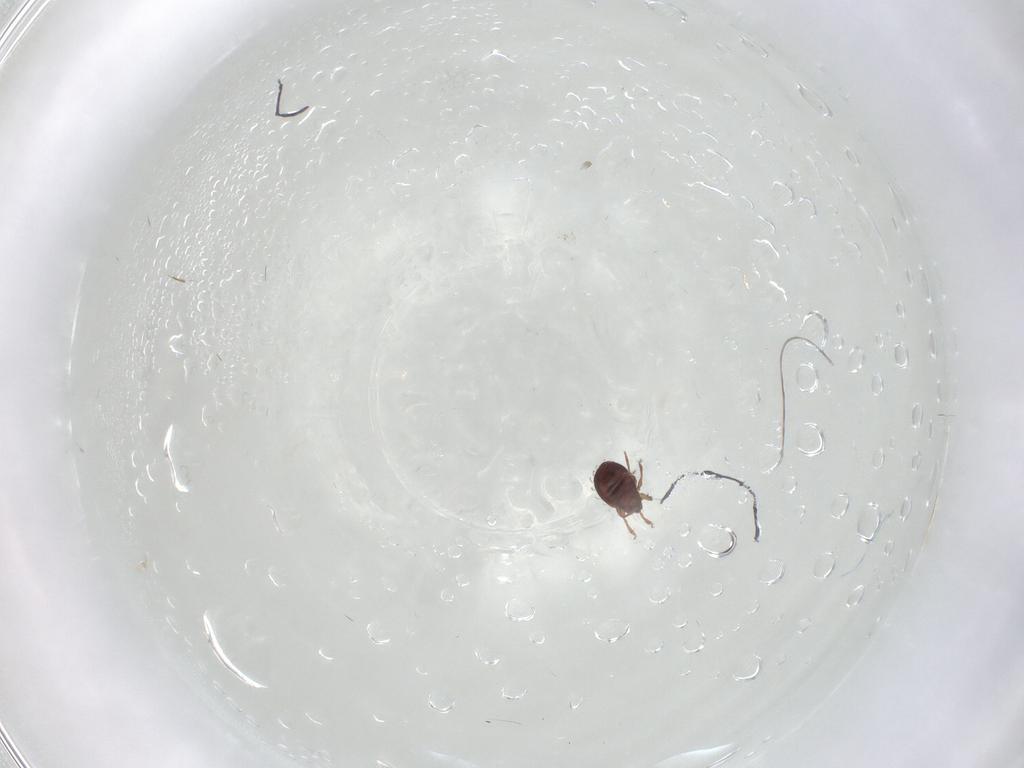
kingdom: Animalia
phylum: Arthropoda
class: Arachnida
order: Sarcoptiformes
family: Scheloribatidae
